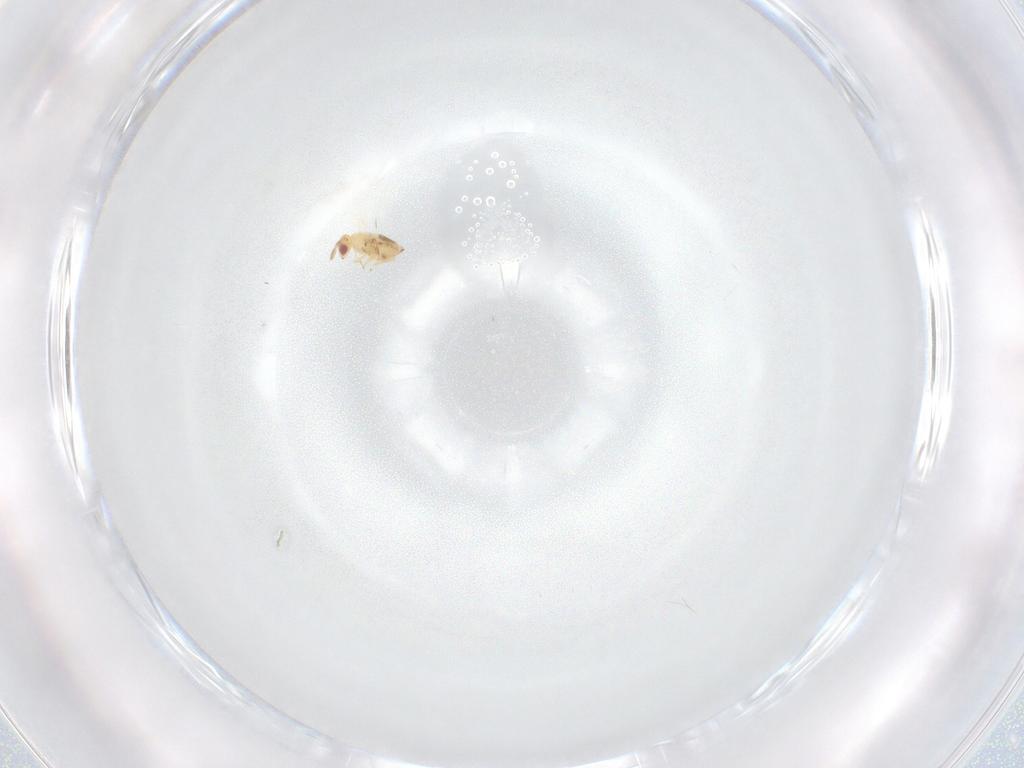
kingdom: Animalia
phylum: Arthropoda
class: Insecta
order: Hymenoptera
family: Trichogrammatidae
